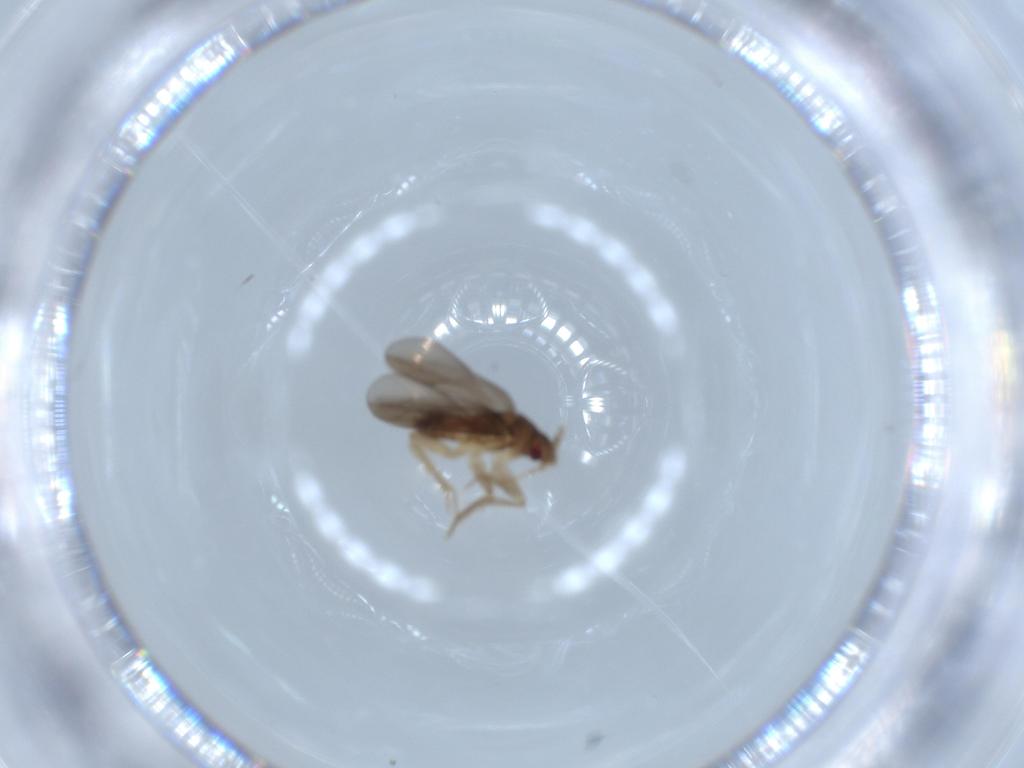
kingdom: Animalia
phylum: Arthropoda
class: Insecta
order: Hemiptera
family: Ceratocombidae
